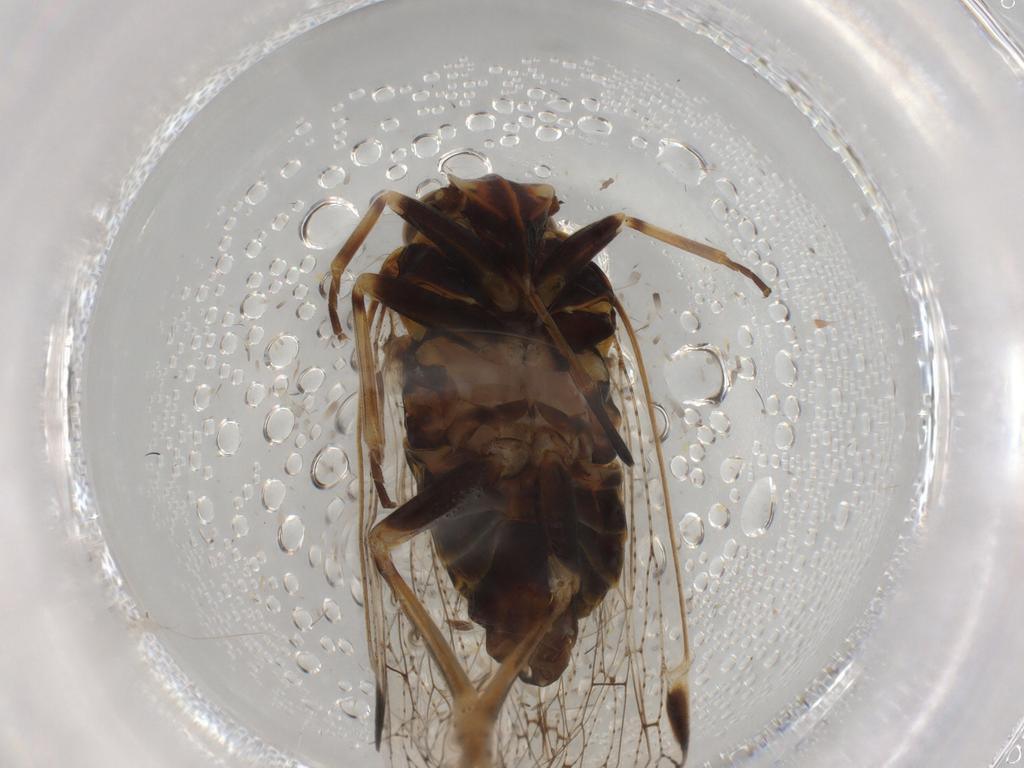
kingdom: Animalia
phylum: Arthropoda
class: Insecta
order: Hemiptera
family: Cixiidae
